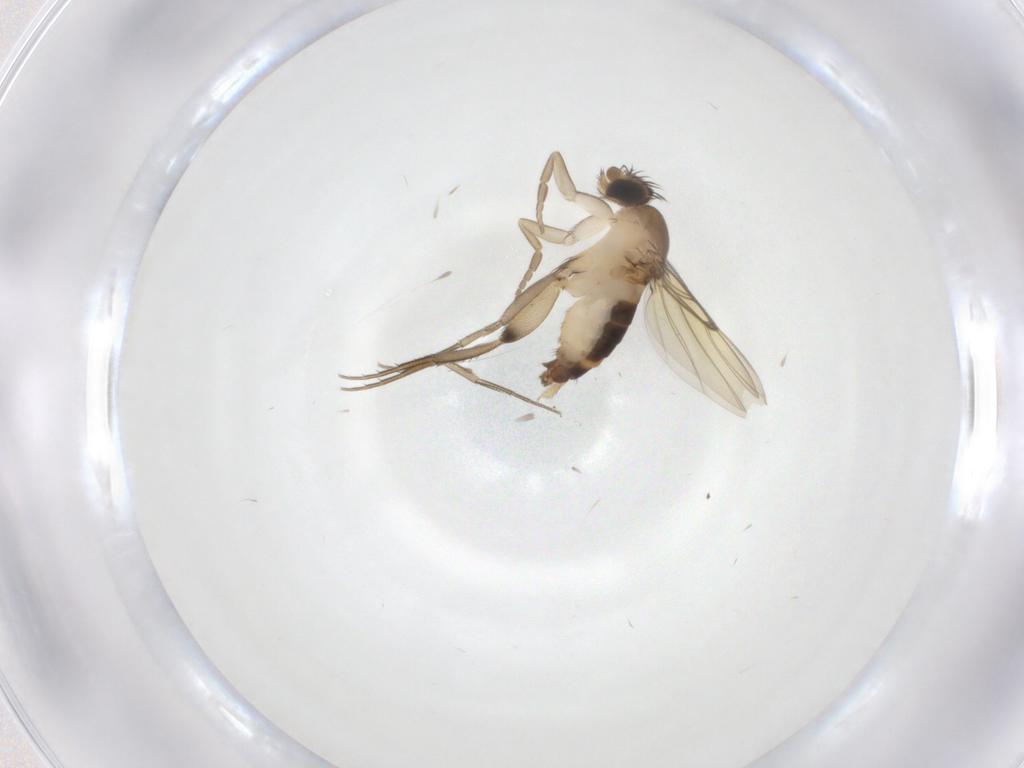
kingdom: Animalia
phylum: Arthropoda
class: Insecta
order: Diptera
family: Phoridae
